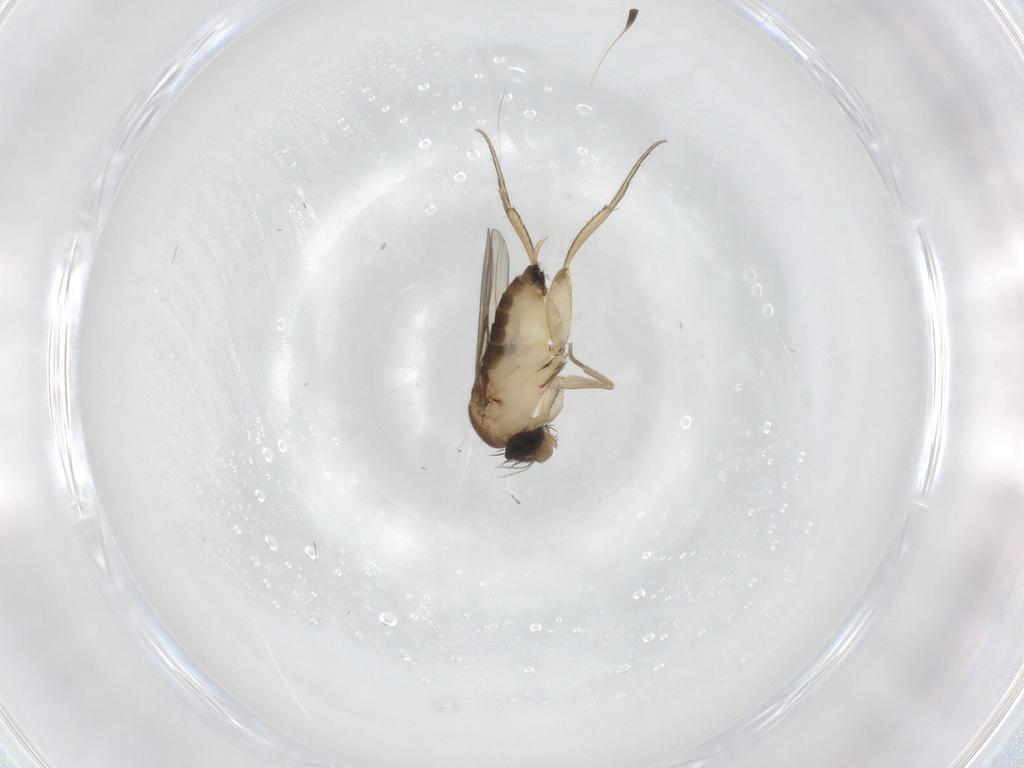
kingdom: Animalia
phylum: Arthropoda
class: Insecta
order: Diptera
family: Phoridae
